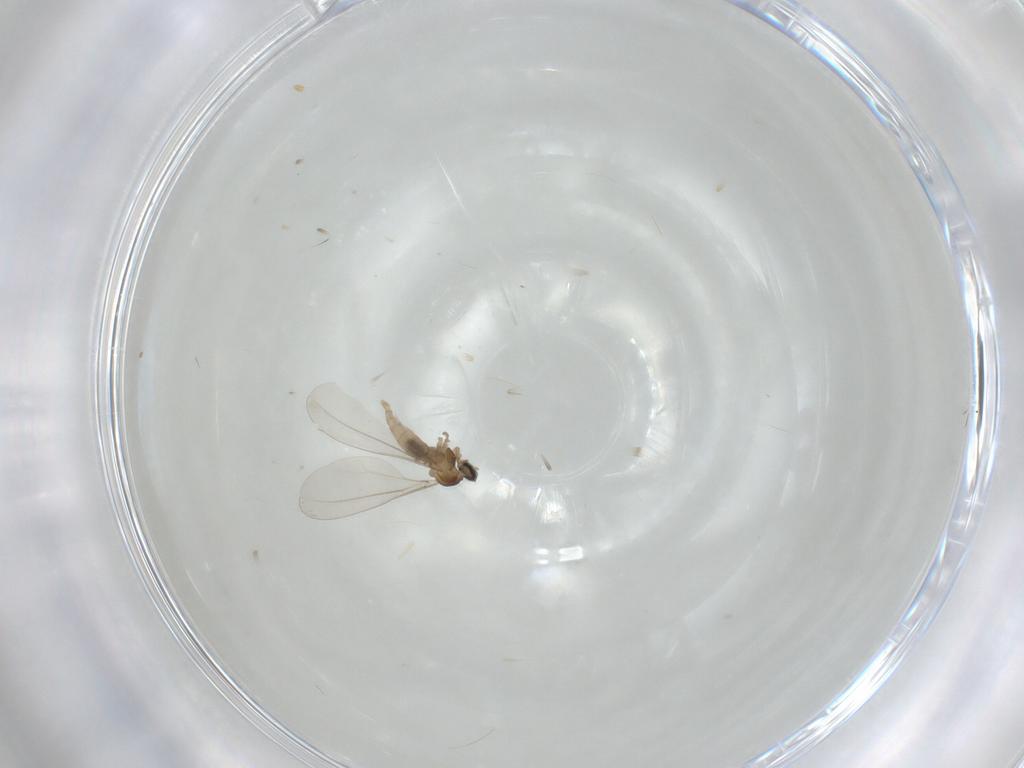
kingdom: Animalia
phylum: Arthropoda
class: Insecta
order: Diptera
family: Cecidomyiidae
